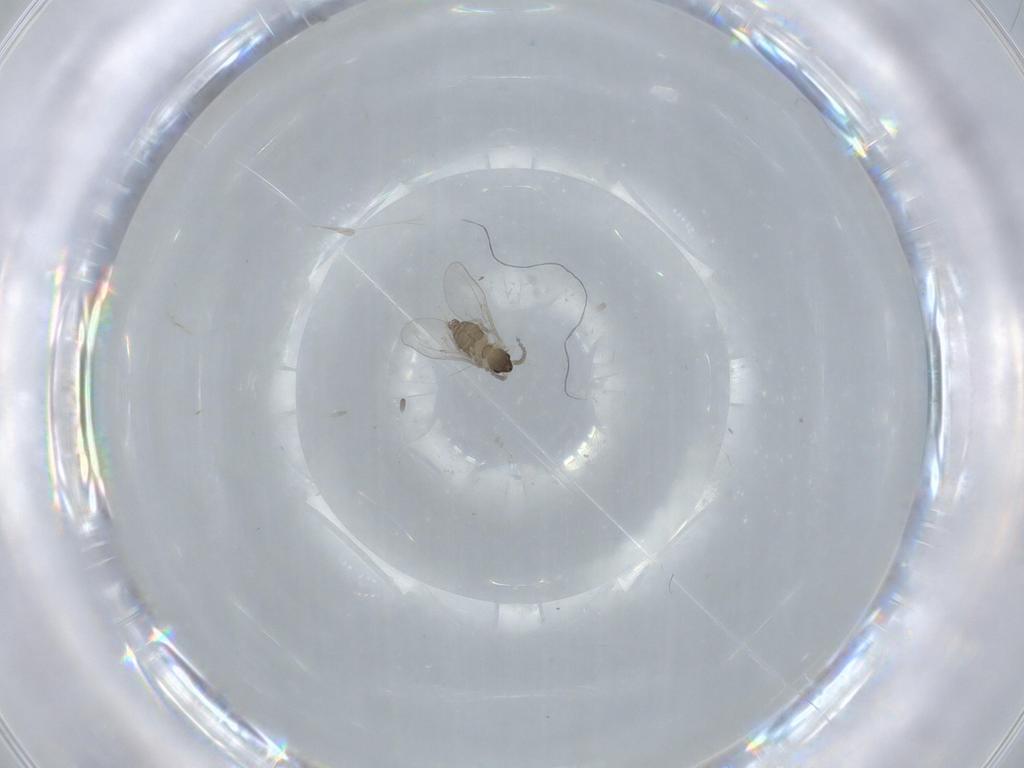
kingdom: Animalia
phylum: Arthropoda
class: Insecta
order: Diptera
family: Cecidomyiidae
